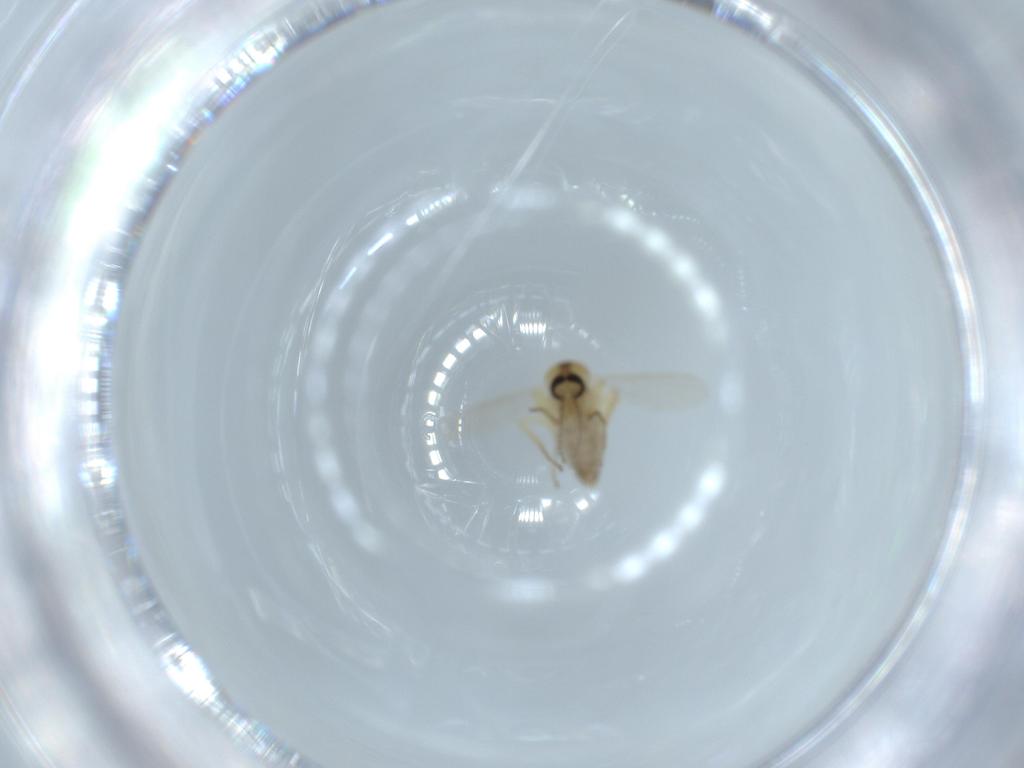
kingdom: Animalia
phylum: Arthropoda
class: Insecta
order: Diptera
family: Ceratopogonidae
